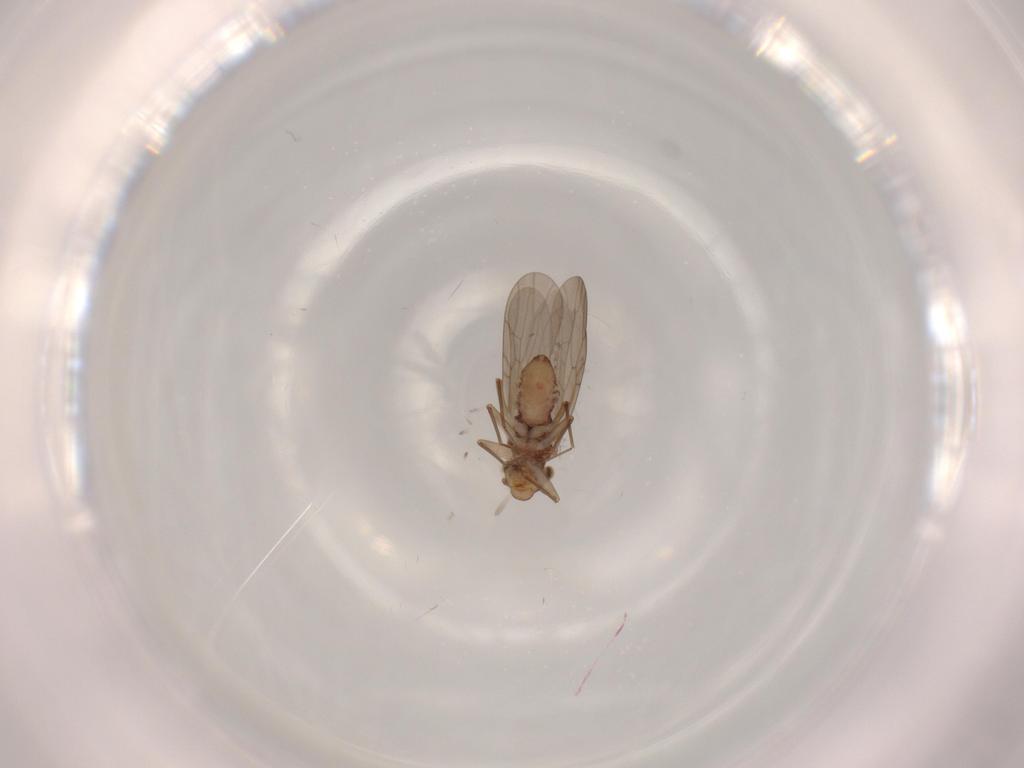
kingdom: Animalia
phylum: Arthropoda
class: Insecta
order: Psocodea
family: Lepidopsocidae
